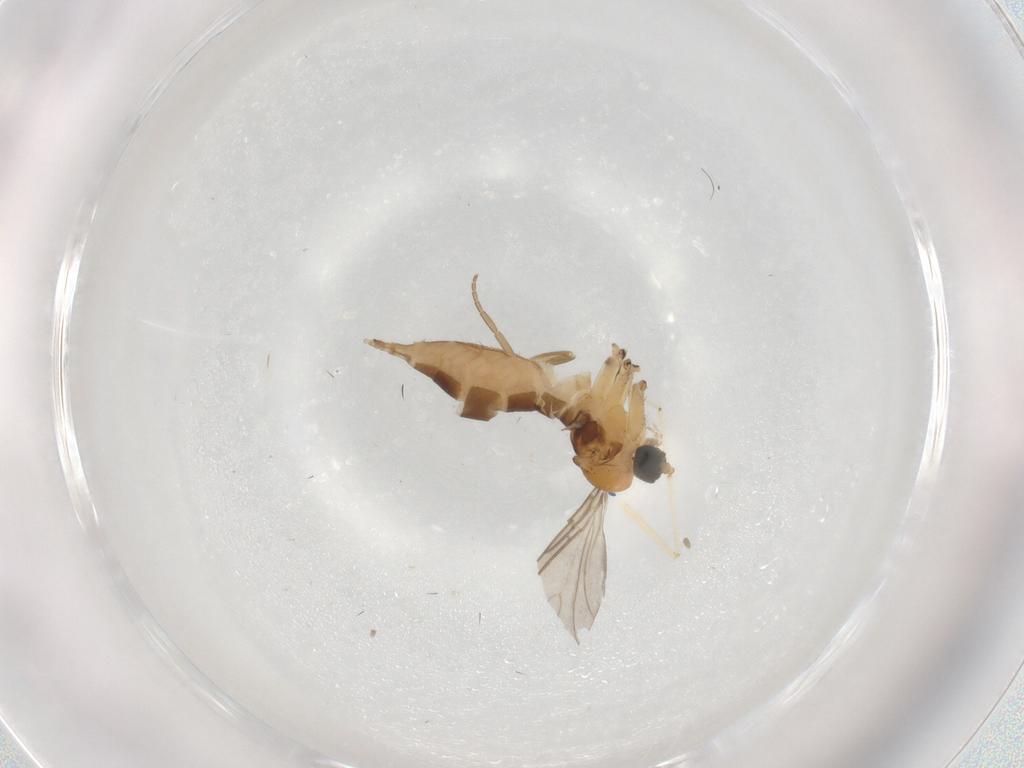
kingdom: Animalia
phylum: Arthropoda
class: Insecta
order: Diptera
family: Sciaridae
